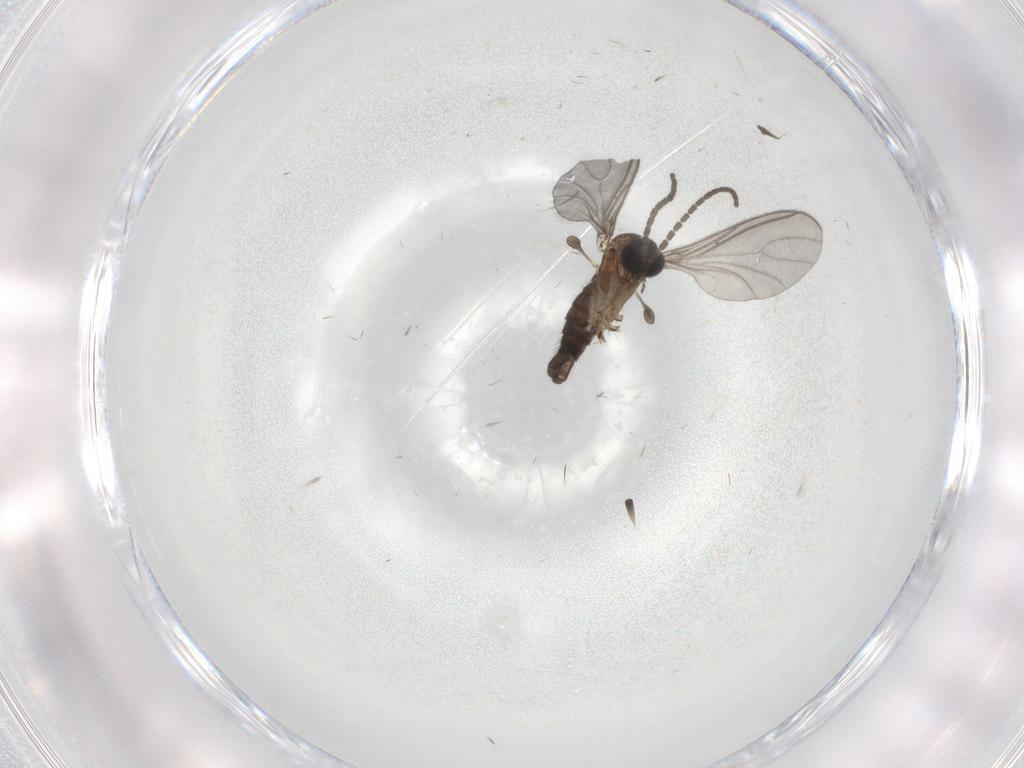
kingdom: Animalia
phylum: Arthropoda
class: Insecta
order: Diptera
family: Sciaridae
